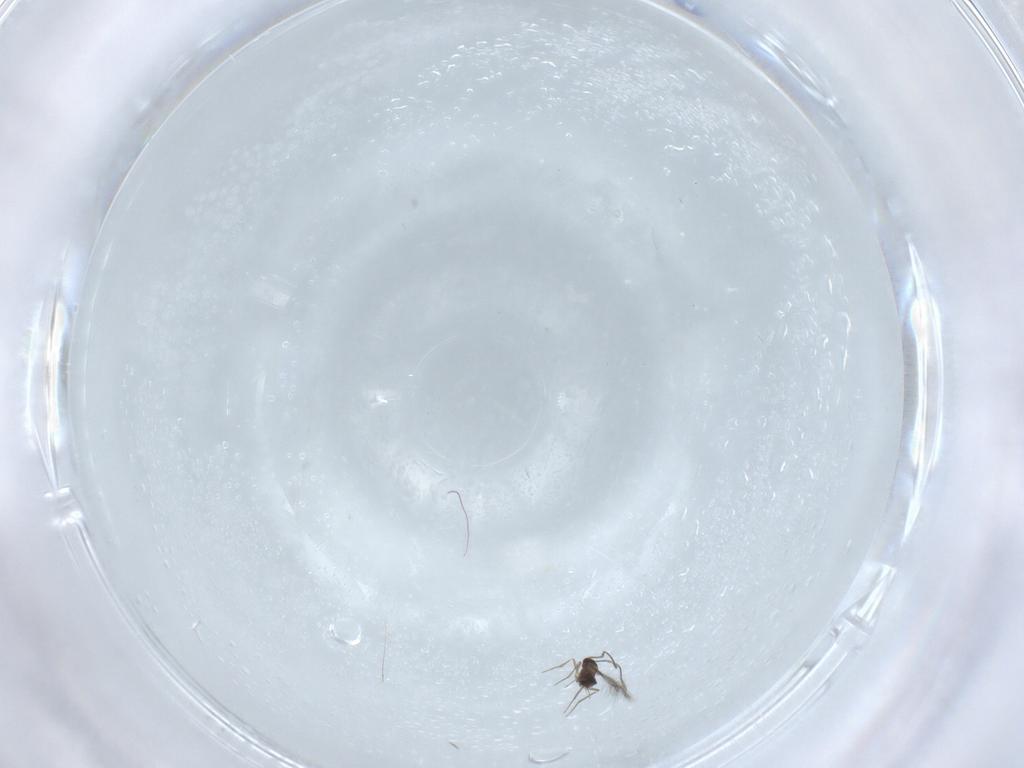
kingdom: Animalia
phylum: Arthropoda
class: Insecta
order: Hymenoptera
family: Mymaridae
